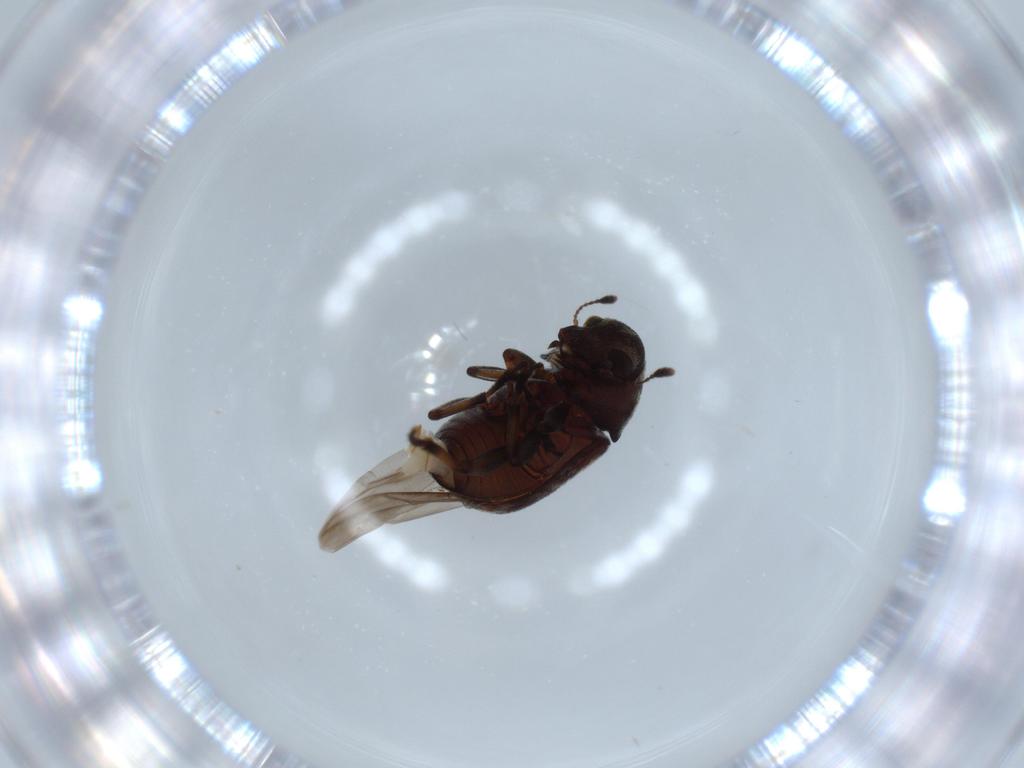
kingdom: Animalia
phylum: Arthropoda
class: Insecta
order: Coleoptera
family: Anthribidae
